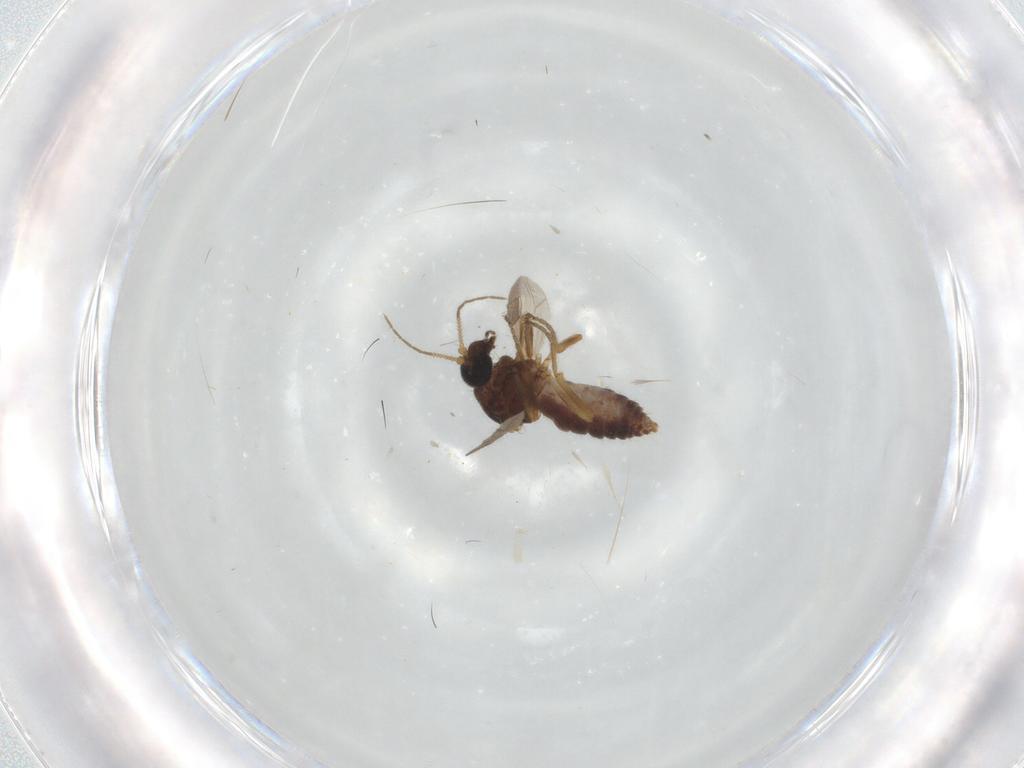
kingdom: Animalia
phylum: Arthropoda
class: Insecta
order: Diptera
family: Ceratopogonidae
